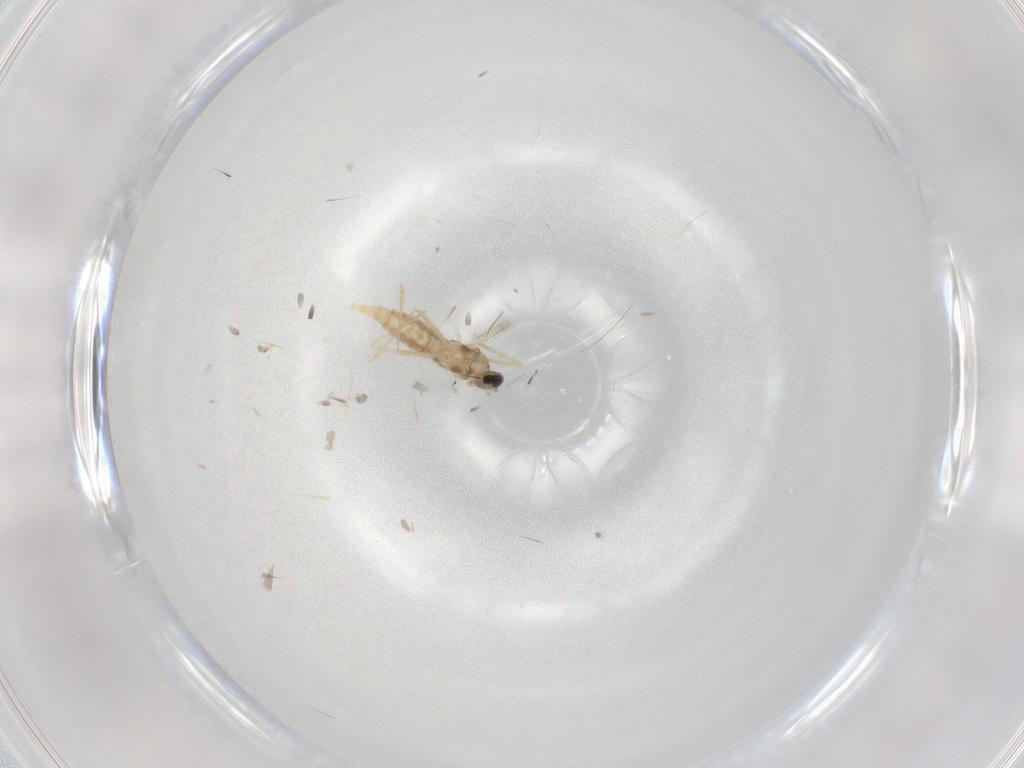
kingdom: Animalia
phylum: Arthropoda
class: Insecta
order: Diptera
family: Cecidomyiidae
